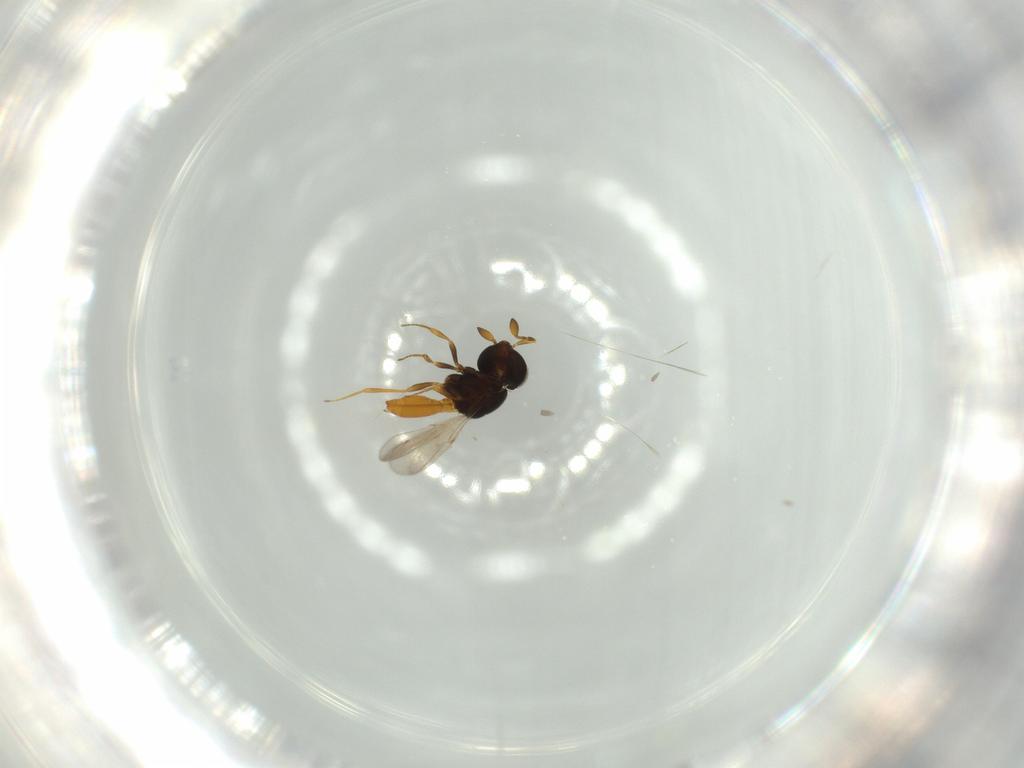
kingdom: Animalia
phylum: Arthropoda
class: Insecta
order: Hymenoptera
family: Scelionidae
